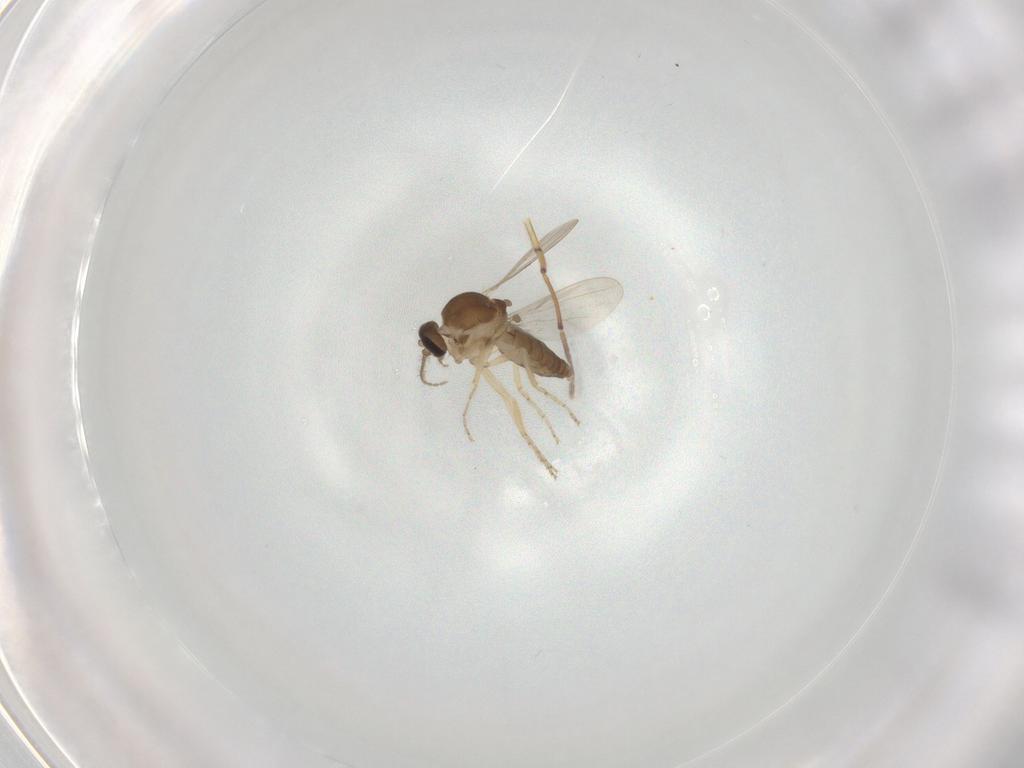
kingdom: Animalia
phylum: Arthropoda
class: Insecta
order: Diptera
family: Ceratopogonidae
